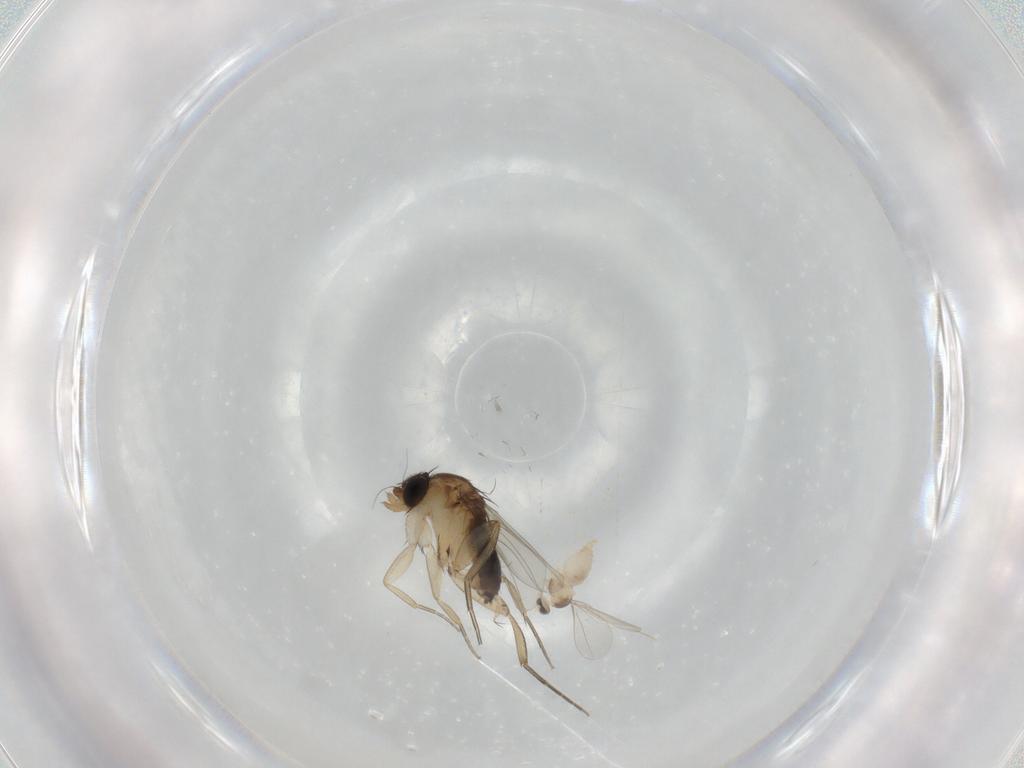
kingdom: Animalia
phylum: Arthropoda
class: Insecta
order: Diptera
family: Cecidomyiidae
